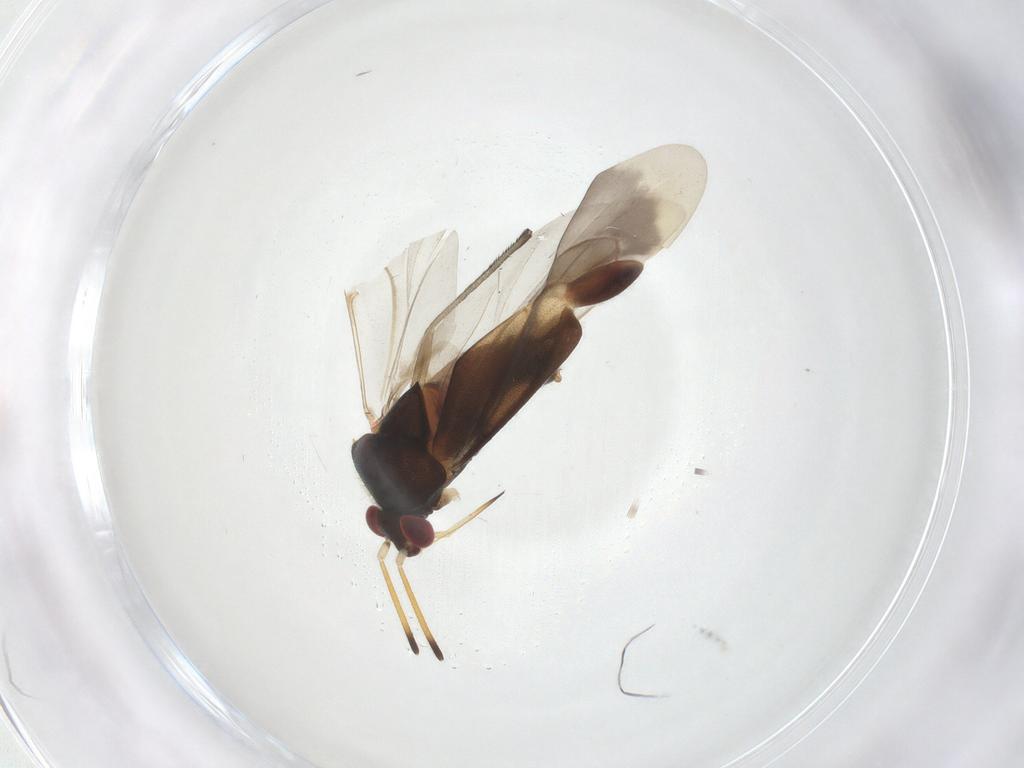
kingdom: Animalia
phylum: Arthropoda
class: Insecta
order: Hemiptera
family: Miridae
